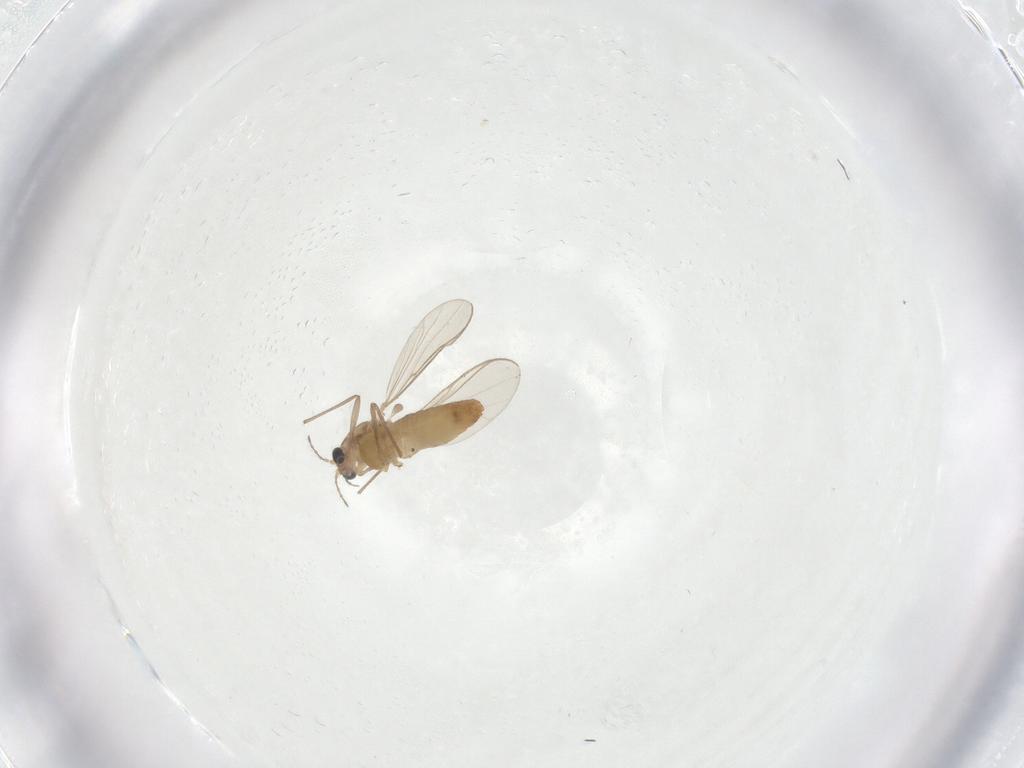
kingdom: Animalia
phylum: Arthropoda
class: Insecta
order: Diptera
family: Chironomidae
